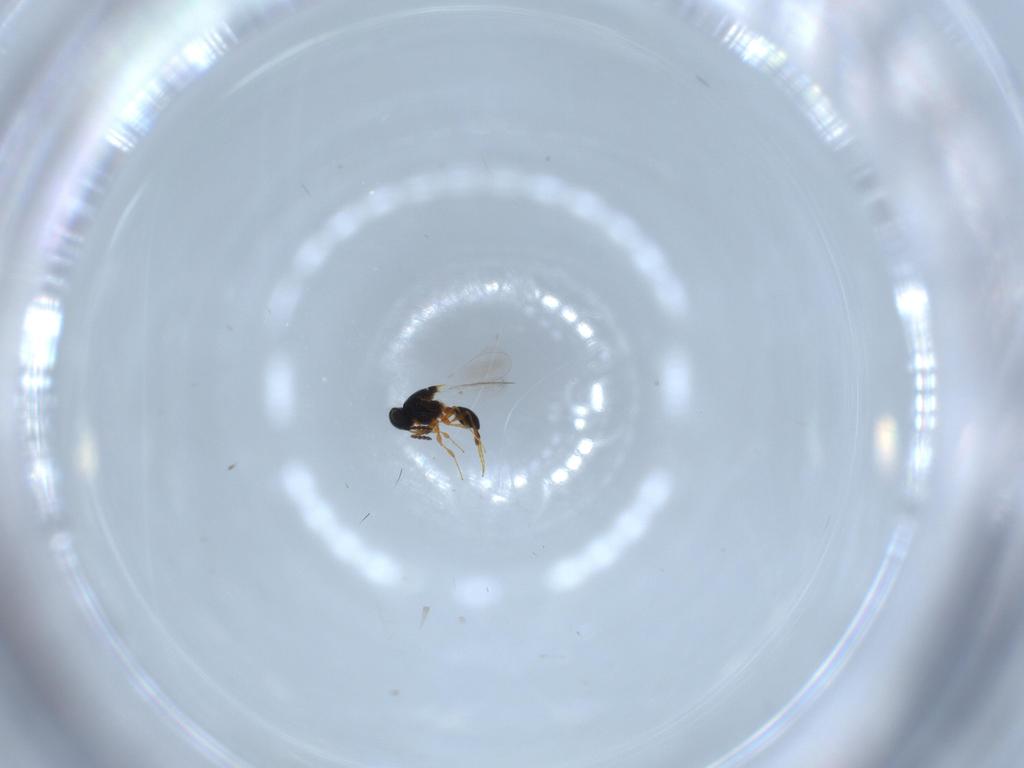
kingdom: Animalia
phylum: Arthropoda
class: Insecta
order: Hymenoptera
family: Platygastridae
